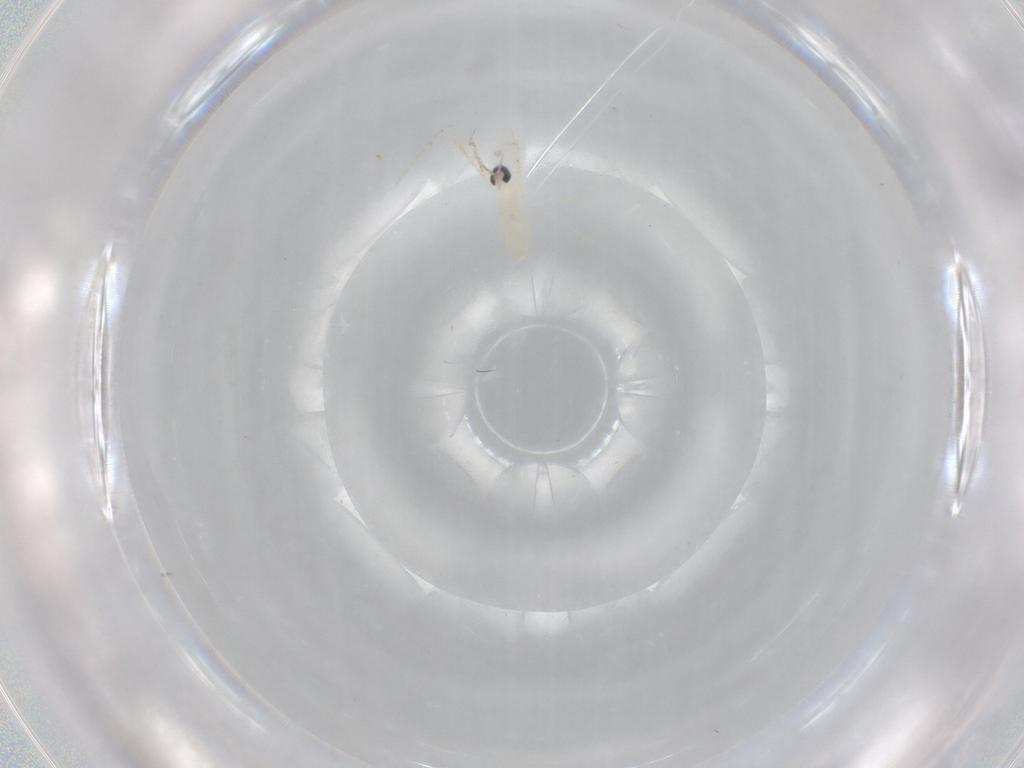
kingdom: Animalia
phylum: Arthropoda
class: Insecta
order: Diptera
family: Cecidomyiidae
